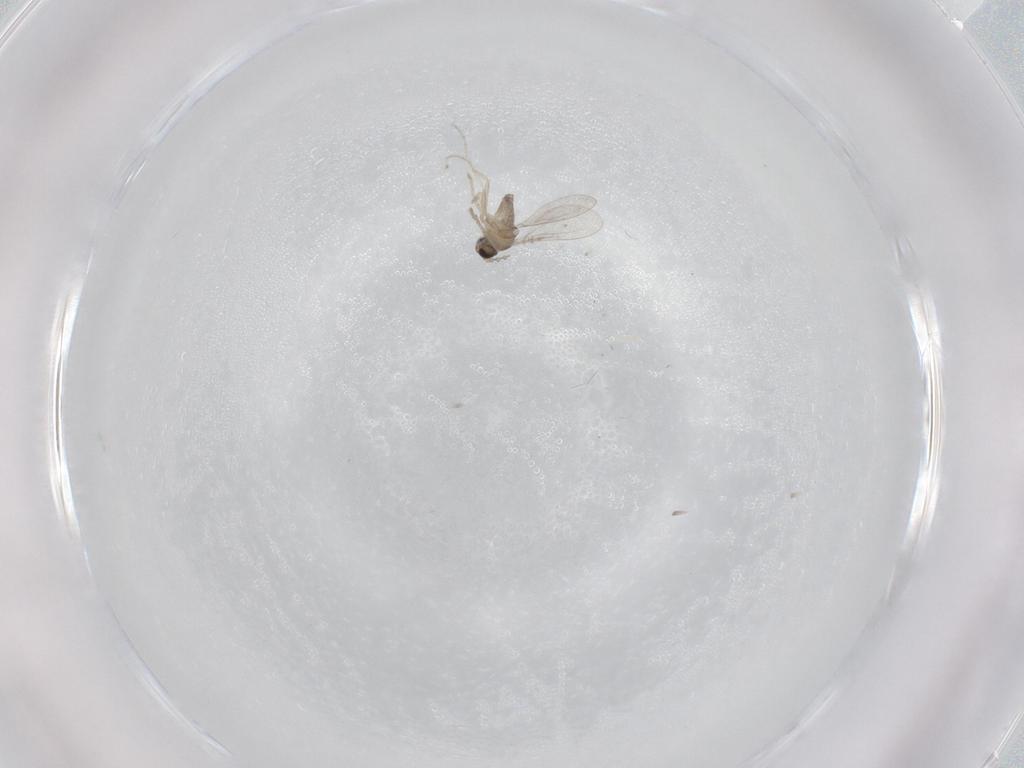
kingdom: Animalia
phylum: Arthropoda
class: Insecta
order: Diptera
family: Cecidomyiidae
